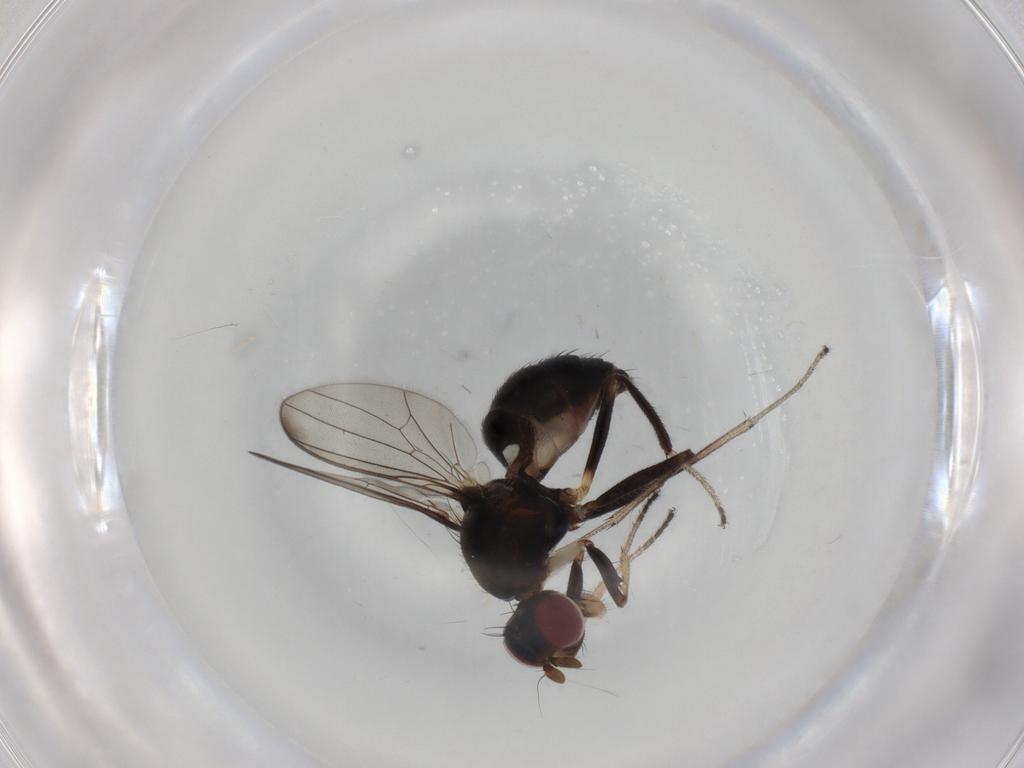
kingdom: Animalia
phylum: Arthropoda
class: Insecta
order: Diptera
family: Sepsidae
